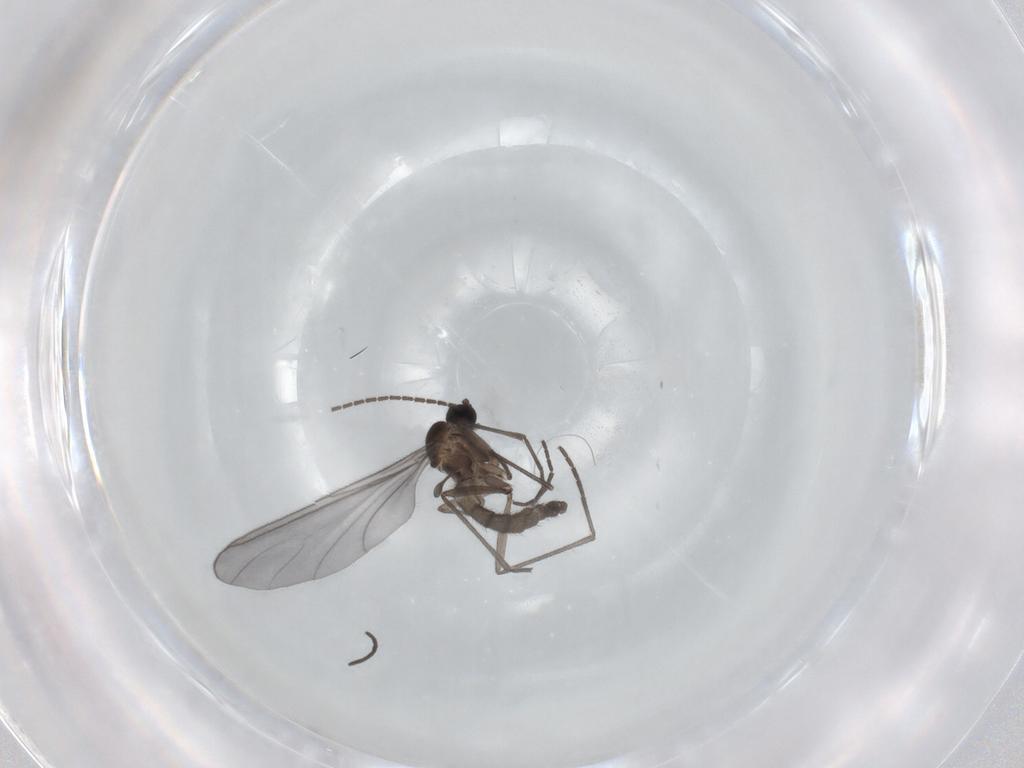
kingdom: Animalia
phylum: Arthropoda
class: Insecta
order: Diptera
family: Sciaridae
